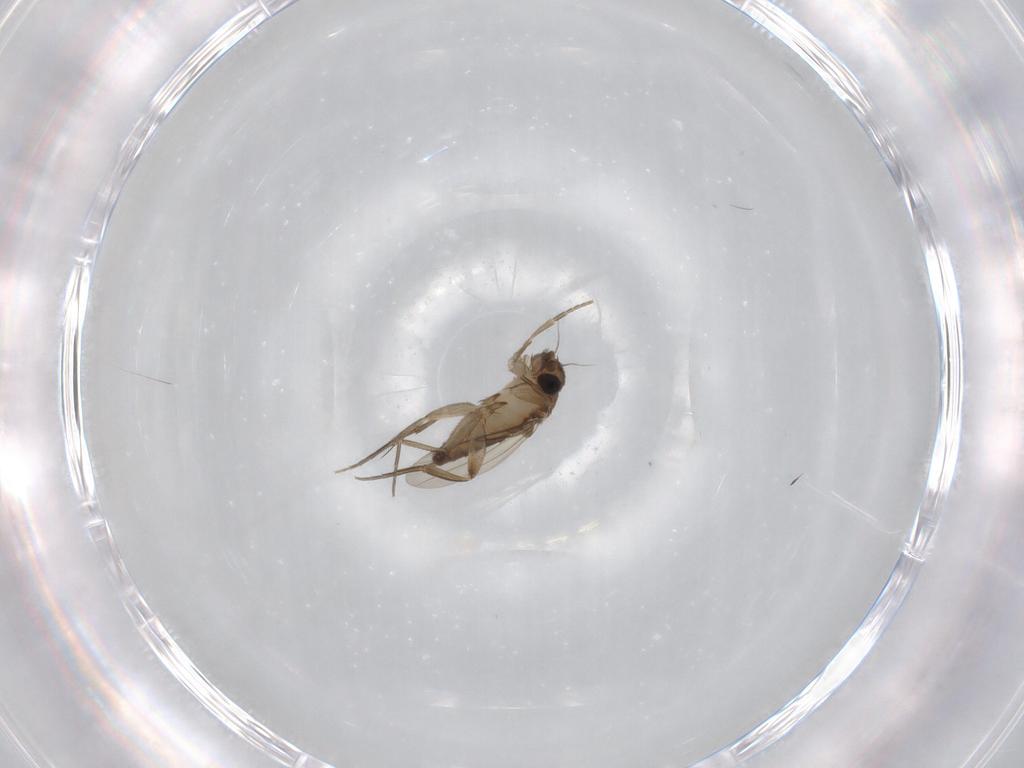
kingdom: Animalia
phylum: Arthropoda
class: Insecta
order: Diptera
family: Phoridae
